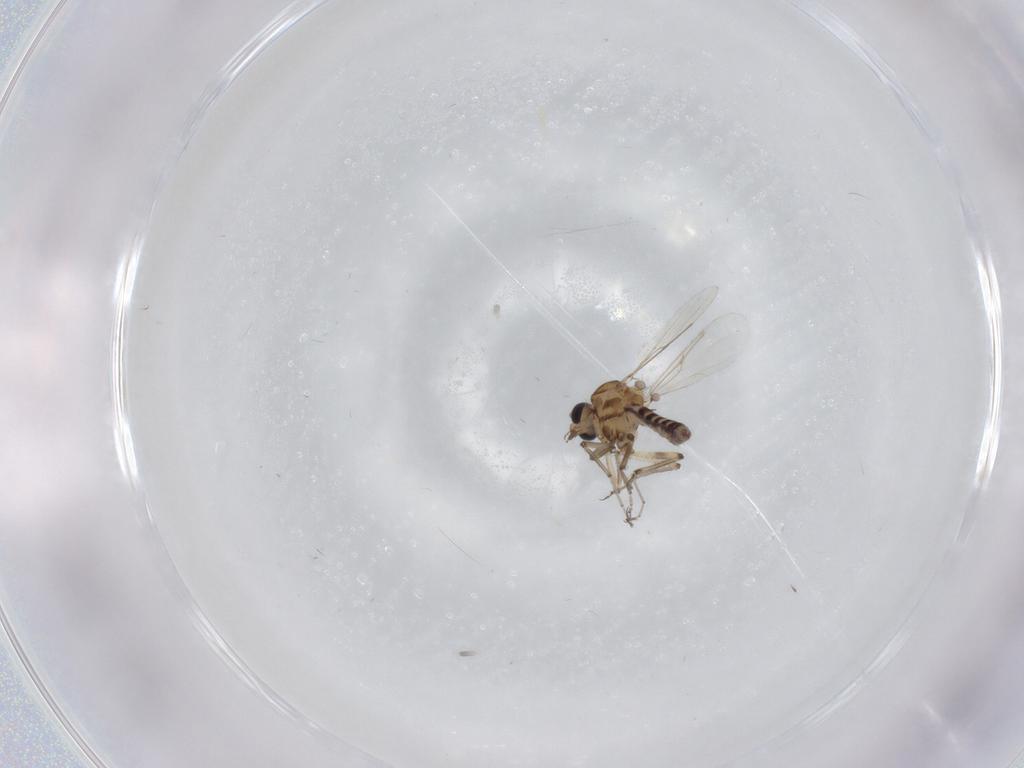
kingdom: Animalia
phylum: Arthropoda
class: Insecta
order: Diptera
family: Ceratopogonidae
